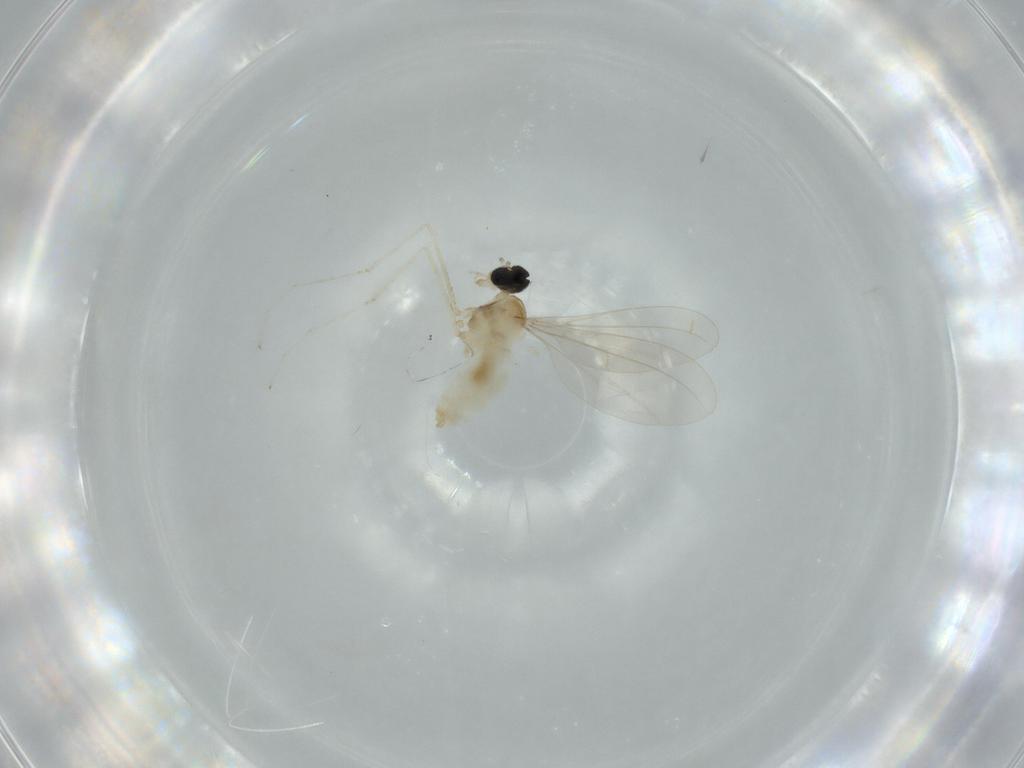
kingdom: Animalia
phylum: Arthropoda
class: Insecta
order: Diptera
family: Cecidomyiidae
